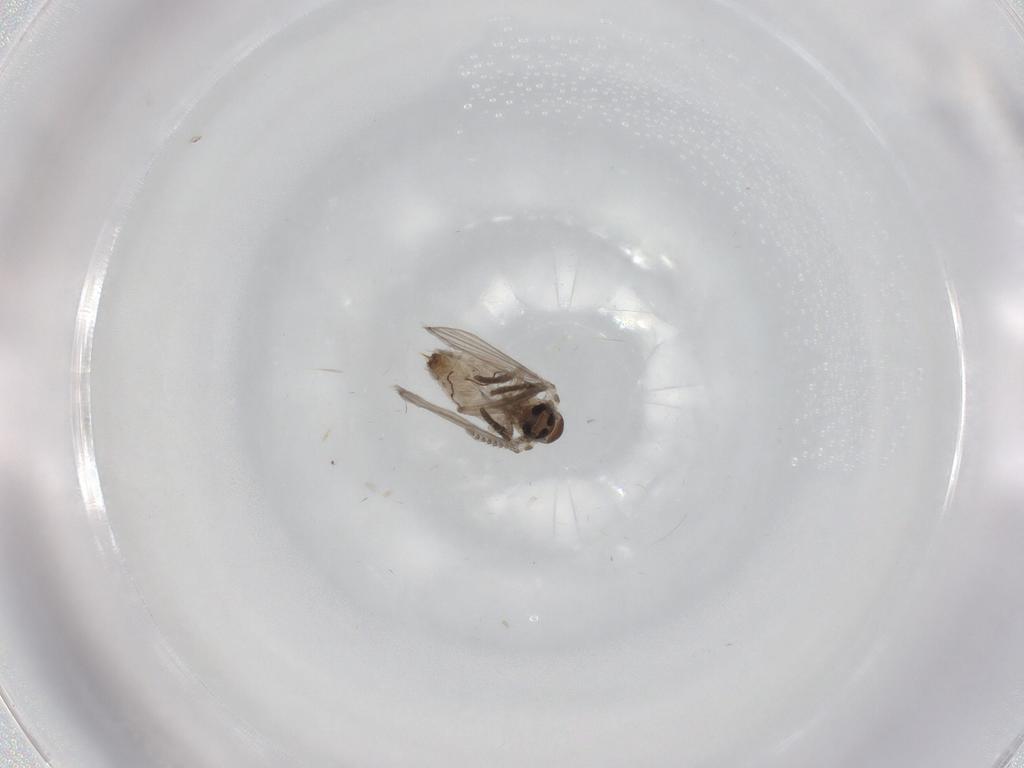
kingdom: Animalia
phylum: Arthropoda
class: Insecta
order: Diptera
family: Psychodidae
